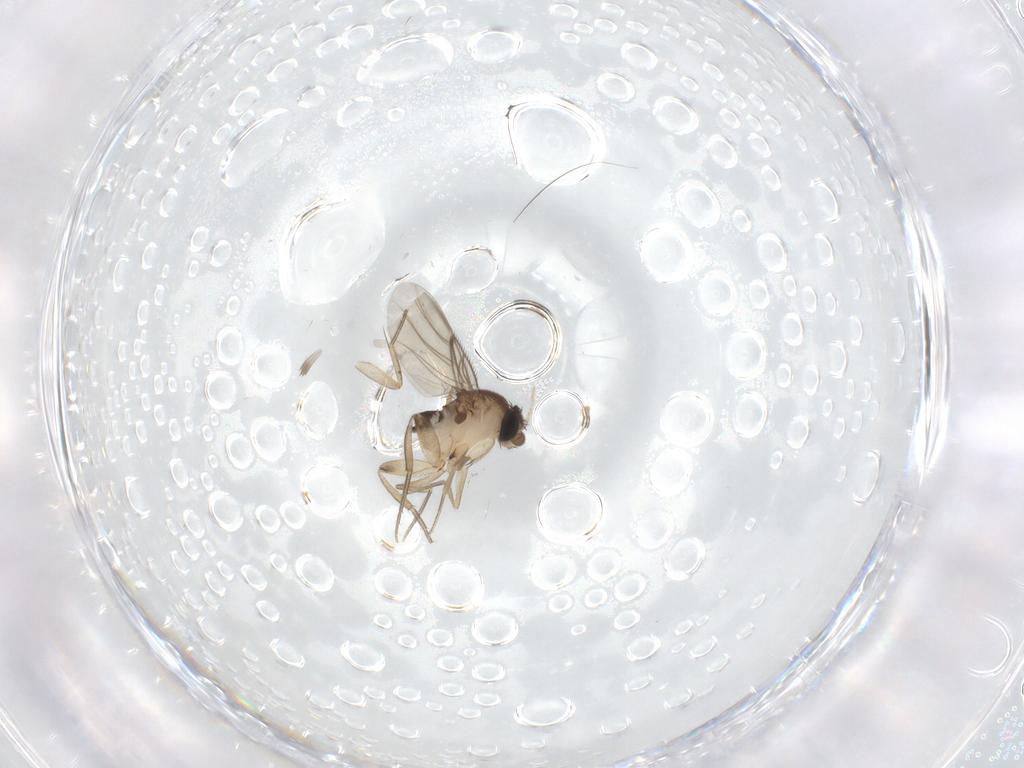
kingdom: Animalia
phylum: Arthropoda
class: Insecta
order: Diptera
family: Phoridae
